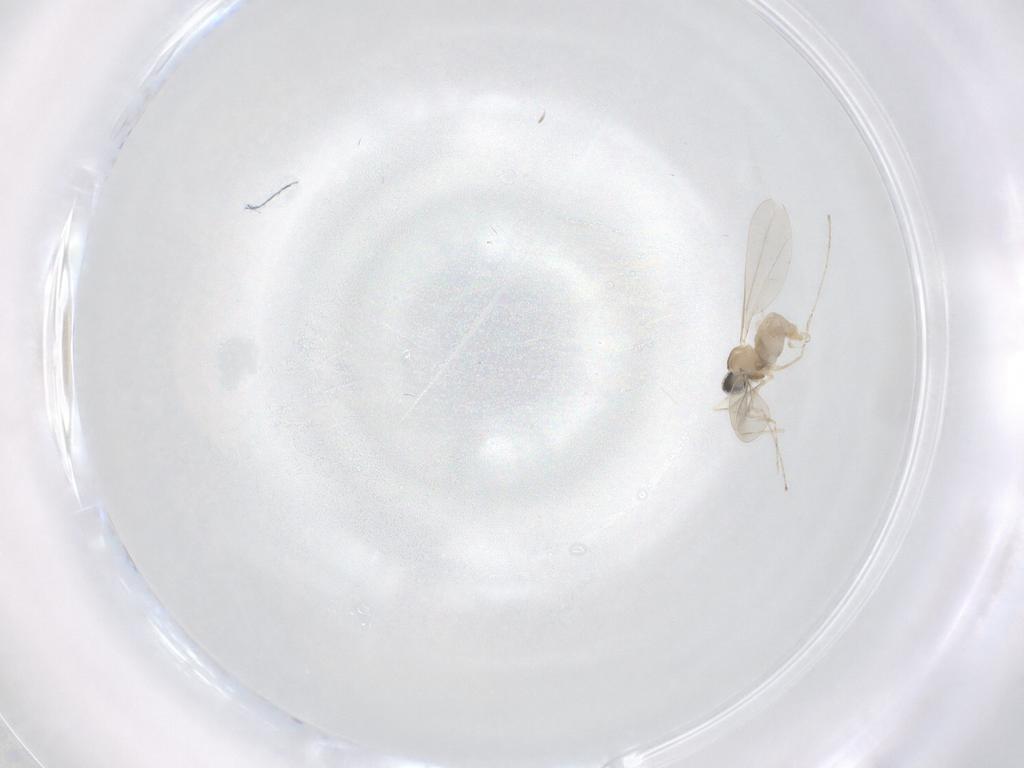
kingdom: Animalia
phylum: Arthropoda
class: Insecta
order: Diptera
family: Cecidomyiidae
